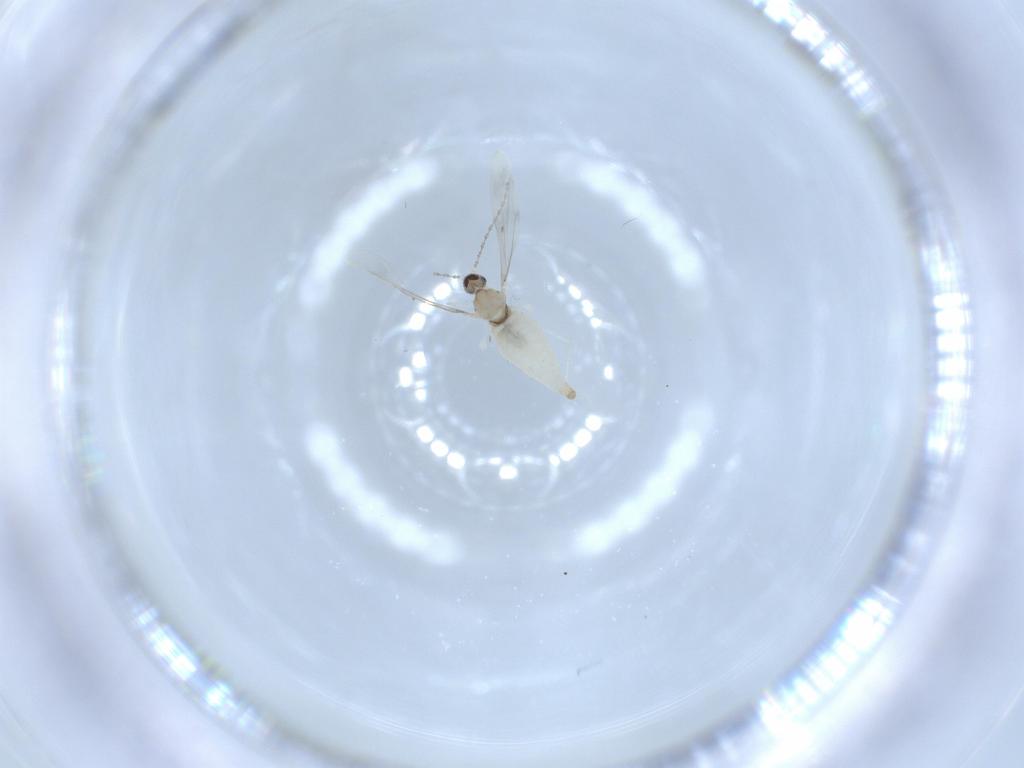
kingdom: Animalia
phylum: Arthropoda
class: Insecta
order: Diptera
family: Cecidomyiidae
